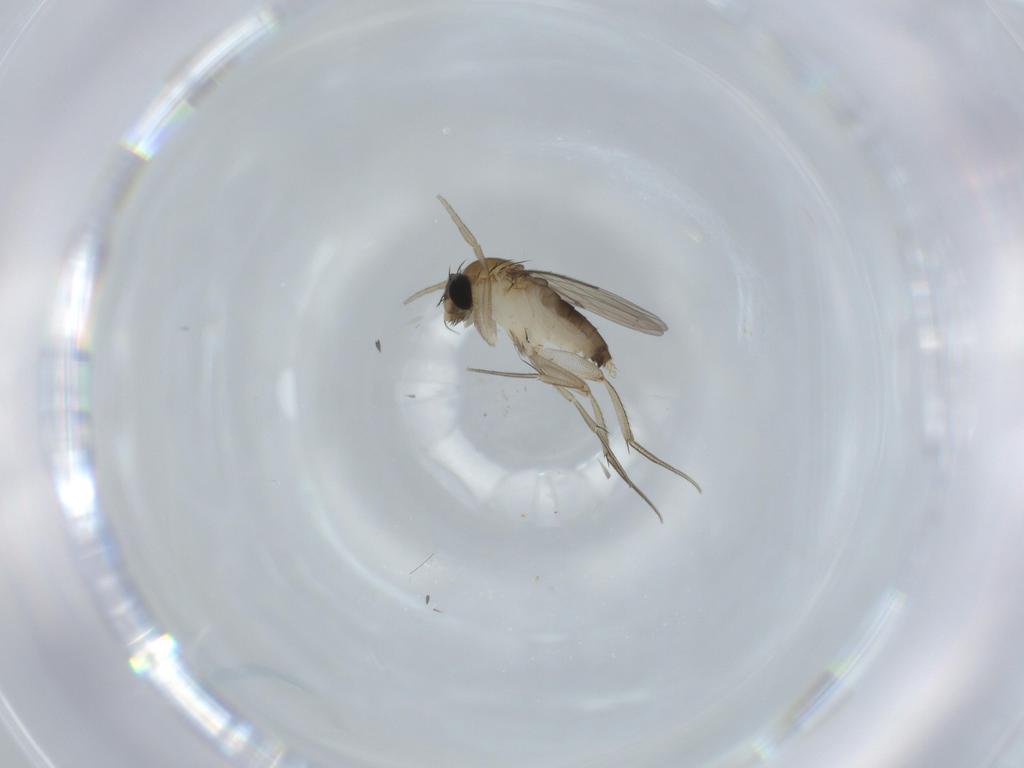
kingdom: Animalia
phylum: Arthropoda
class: Insecta
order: Diptera
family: Phoridae
